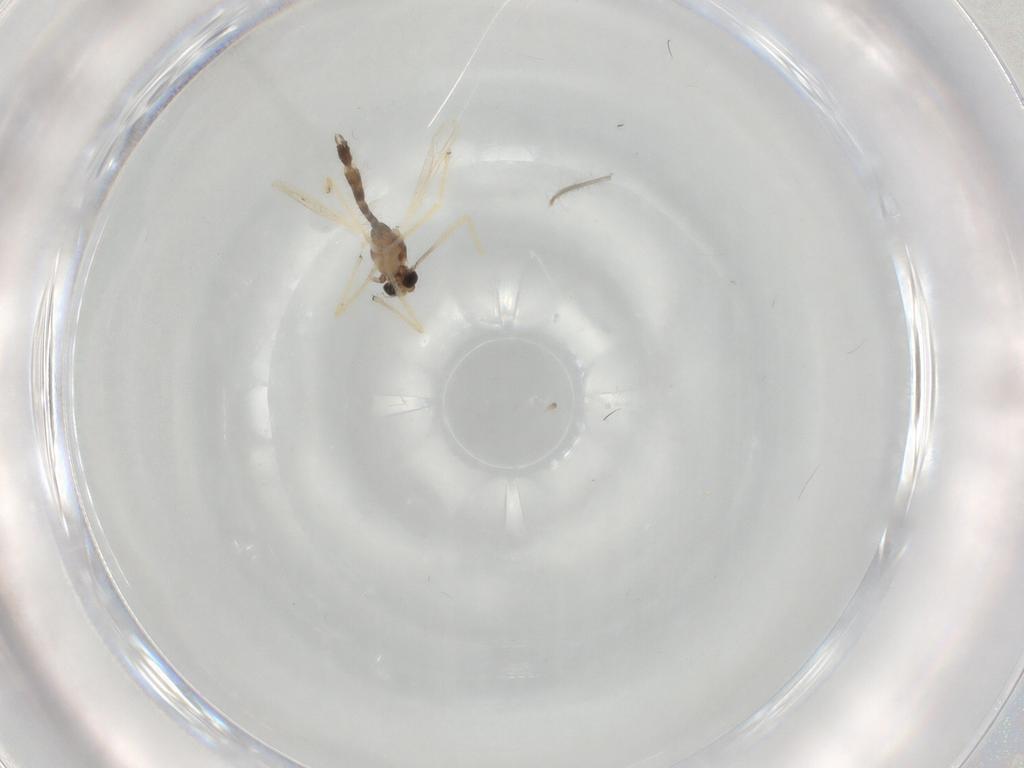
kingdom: Animalia
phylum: Arthropoda
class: Insecta
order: Diptera
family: Chironomidae
